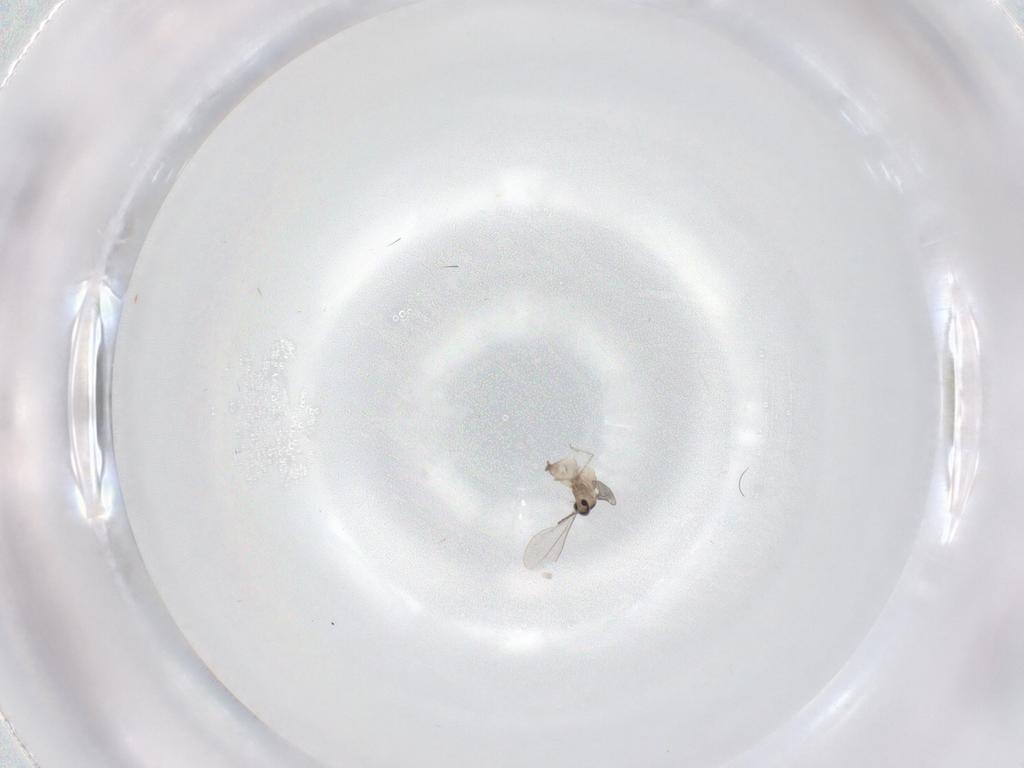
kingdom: Animalia
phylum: Arthropoda
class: Insecta
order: Diptera
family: Cecidomyiidae
